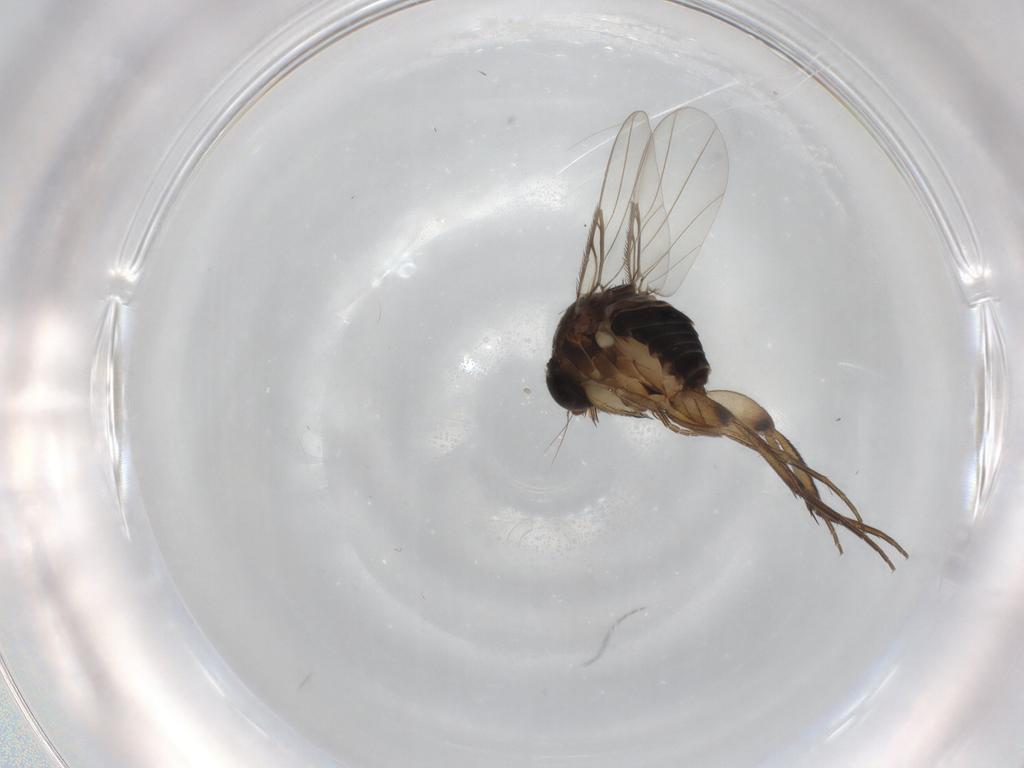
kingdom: Animalia
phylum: Arthropoda
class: Insecta
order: Diptera
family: Phoridae
